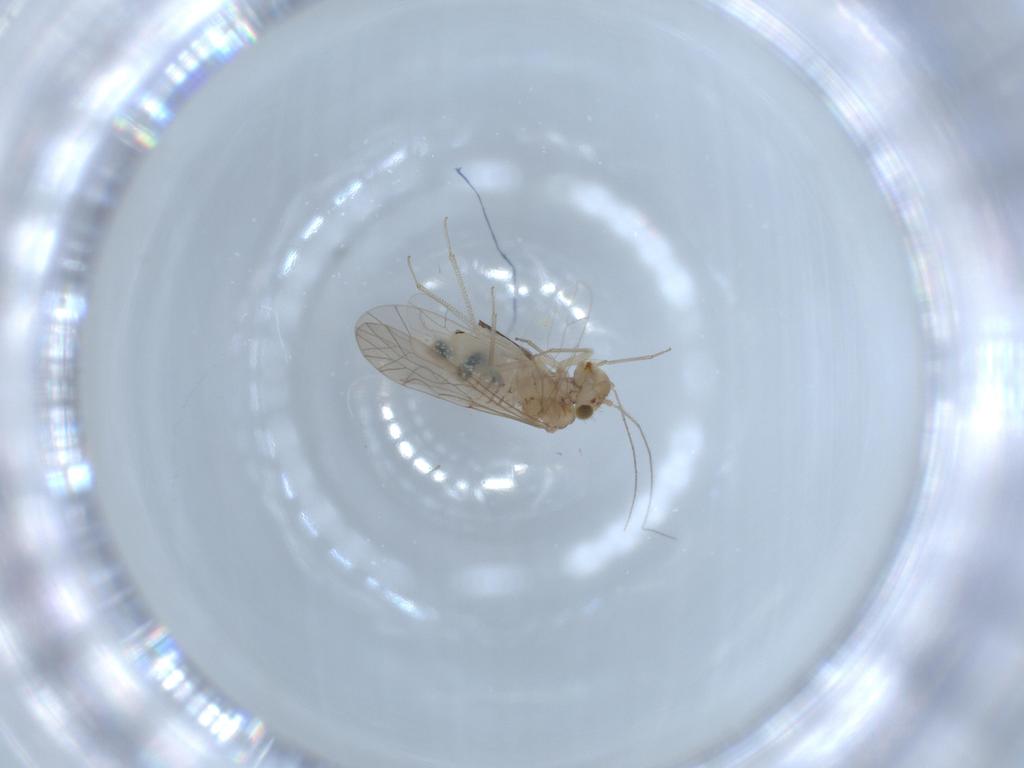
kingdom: Animalia
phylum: Arthropoda
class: Insecta
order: Psocodea
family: Lachesillidae
